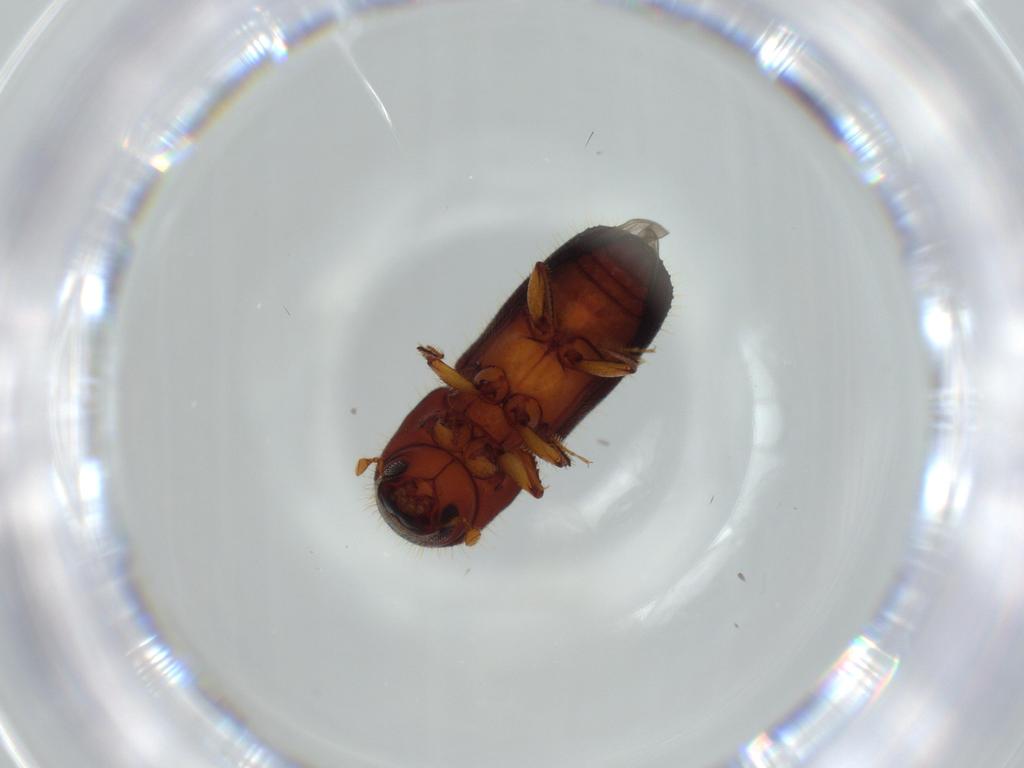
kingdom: Animalia
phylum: Arthropoda
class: Insecta
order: Coleoptera
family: Curculionidae
